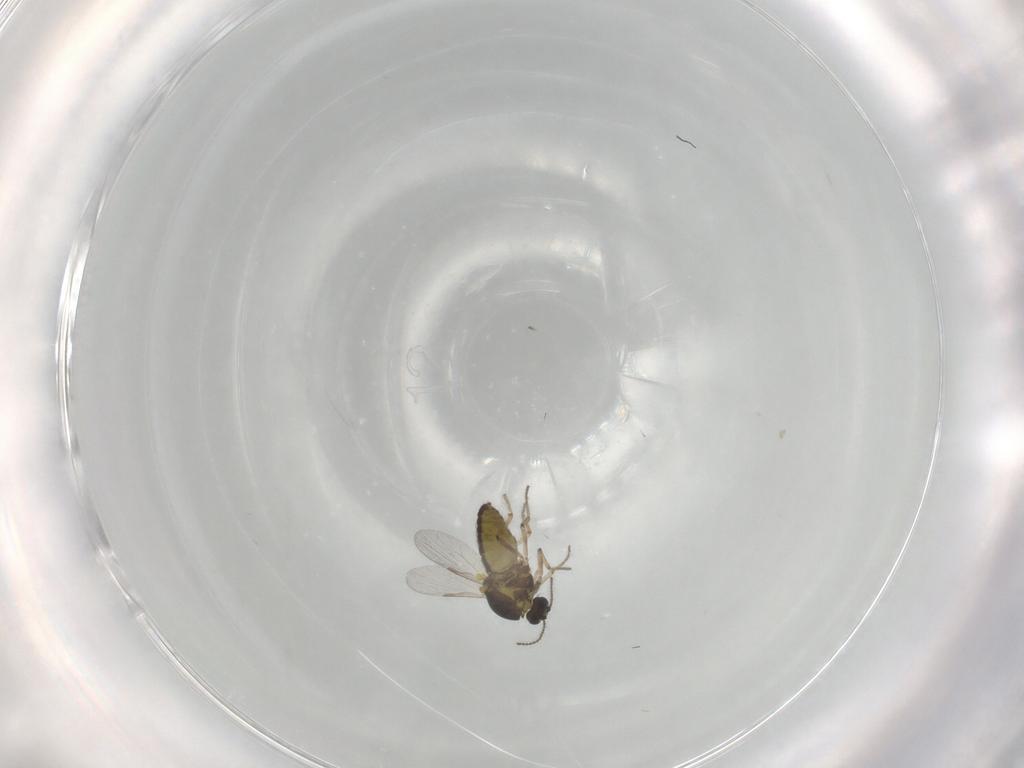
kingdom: Animalia
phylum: Arthropoda
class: Insecta
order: Diptera
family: Ceratopogonidae
